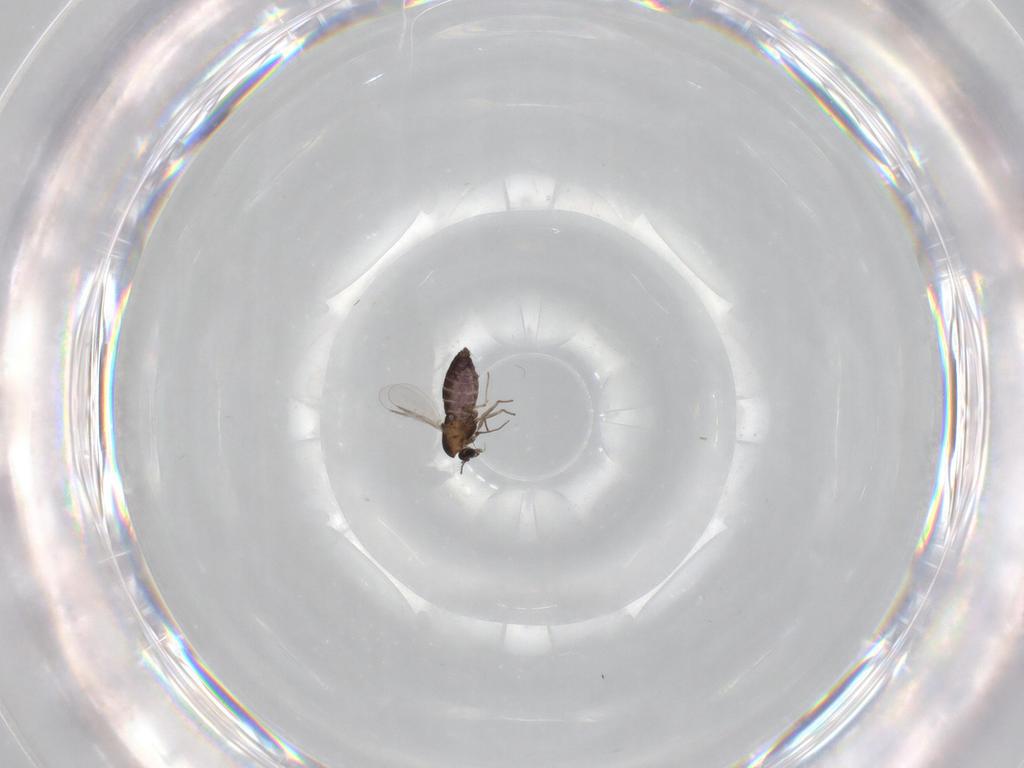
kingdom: Animalia
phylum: Arthropoda
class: Insecta
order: Diptera
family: Chironomidae
